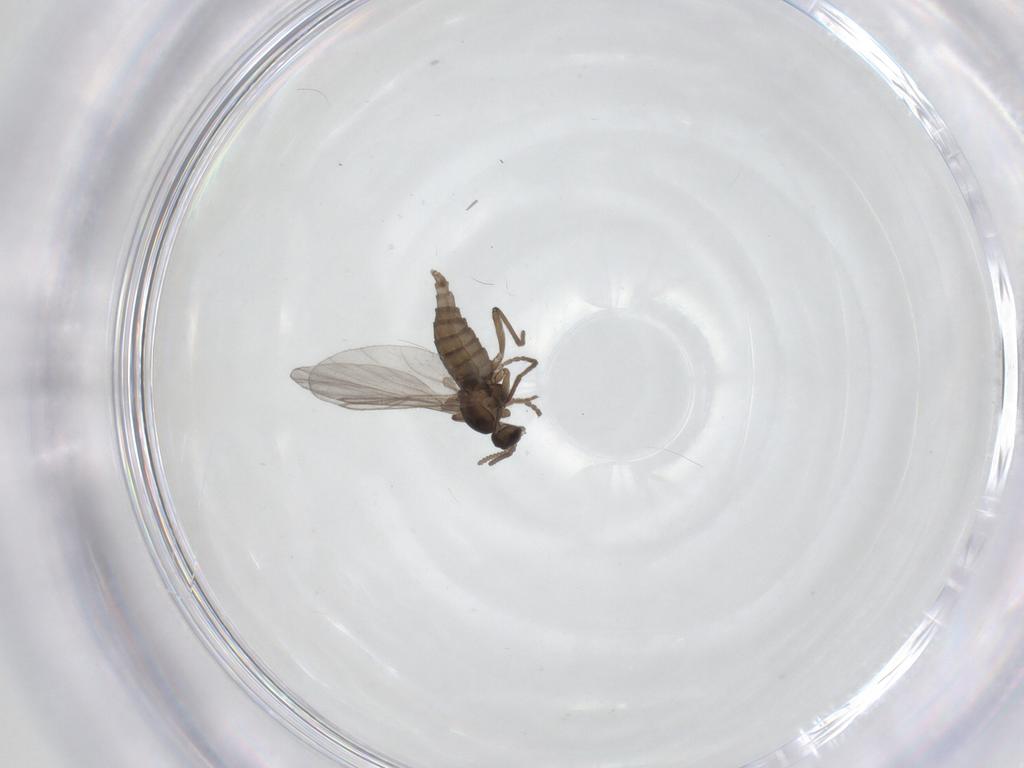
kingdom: Animalia
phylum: Arthropoda
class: Insecta
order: Diptera
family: Cecidomyiidae
